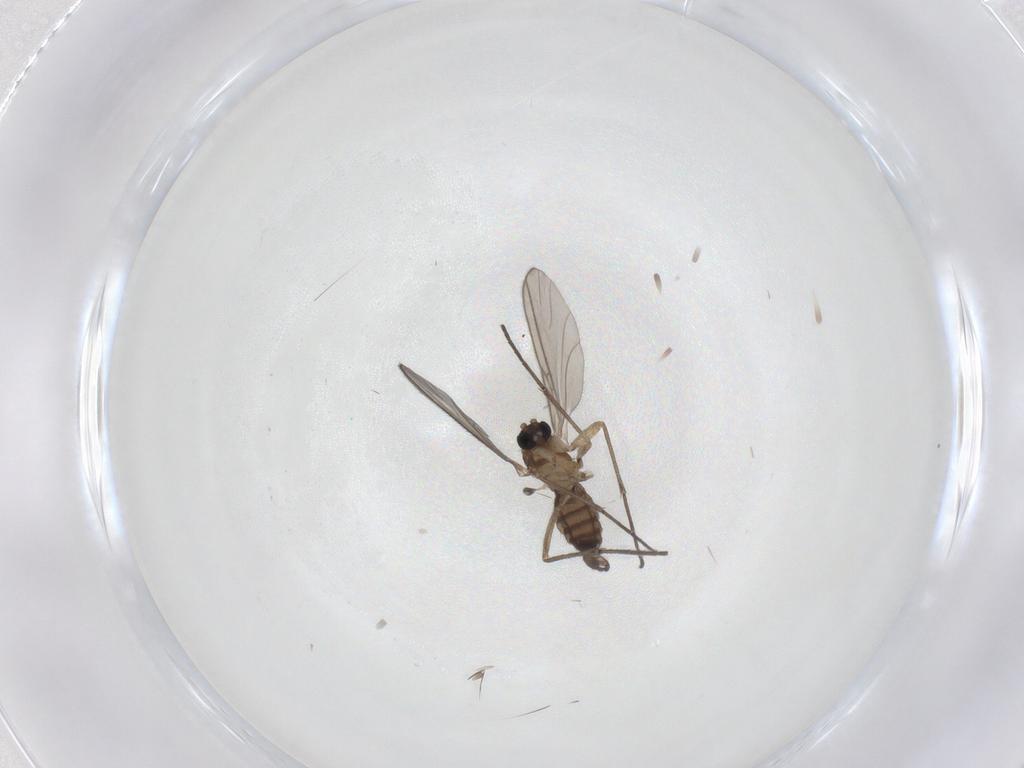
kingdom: Animalia
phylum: Arthropoda
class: Insecta
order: Diptera
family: Sciaridae
